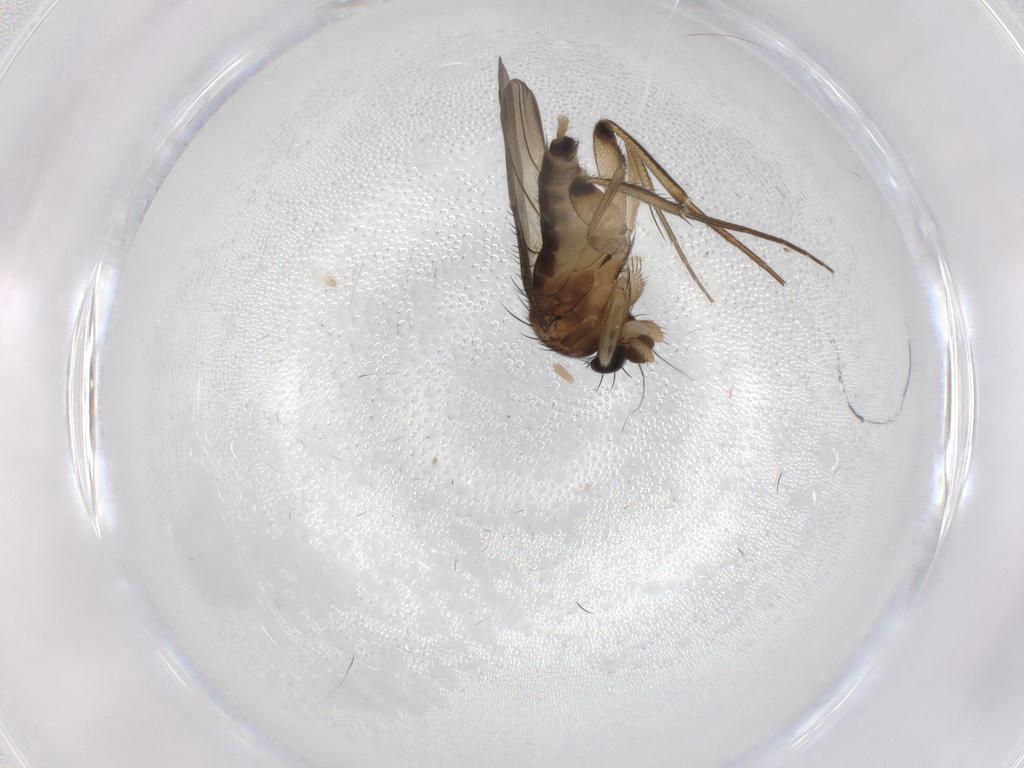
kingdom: Animalia
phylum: Arthropoda
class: Insecta
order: Diptera
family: Phoridae
